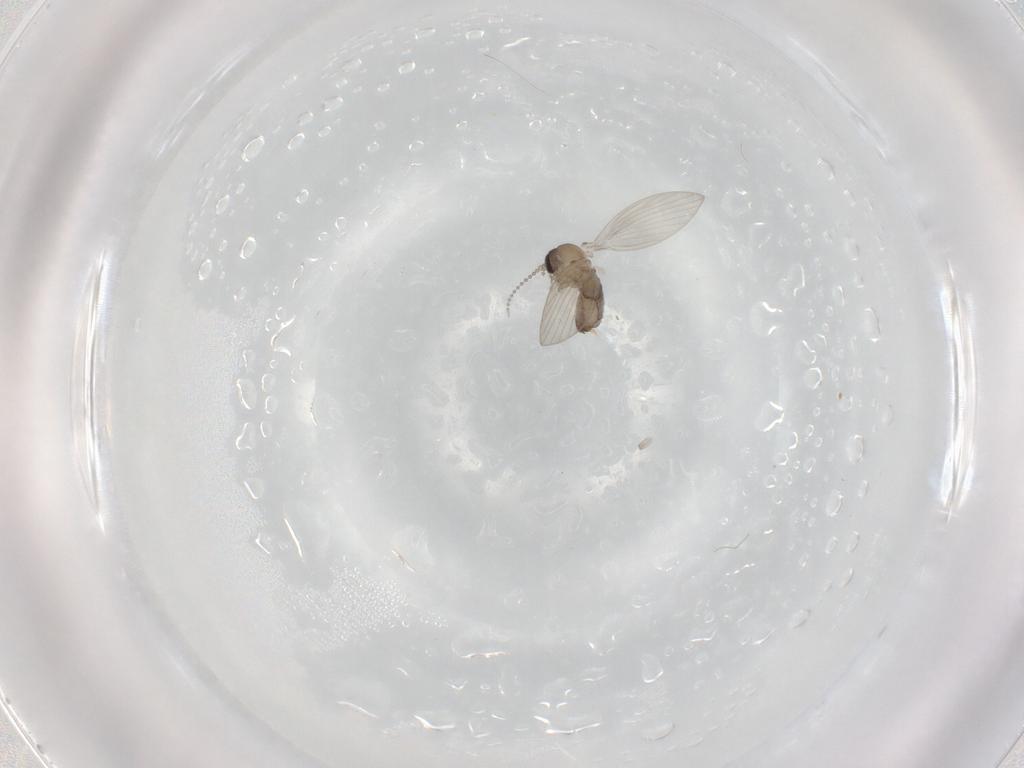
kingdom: Animalia
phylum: Arthropoda
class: Insecta
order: Diptera
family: Psychodidae
